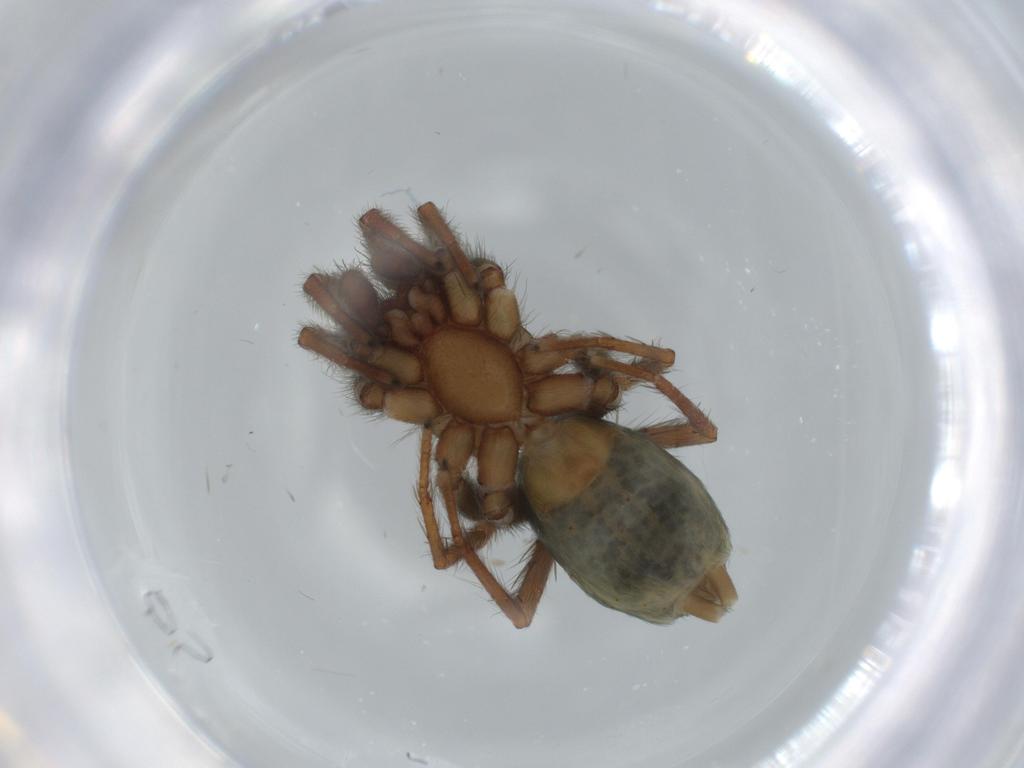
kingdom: Animalia
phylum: Arthropoda
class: Arachnida
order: Araneae
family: Gnaphosidae
